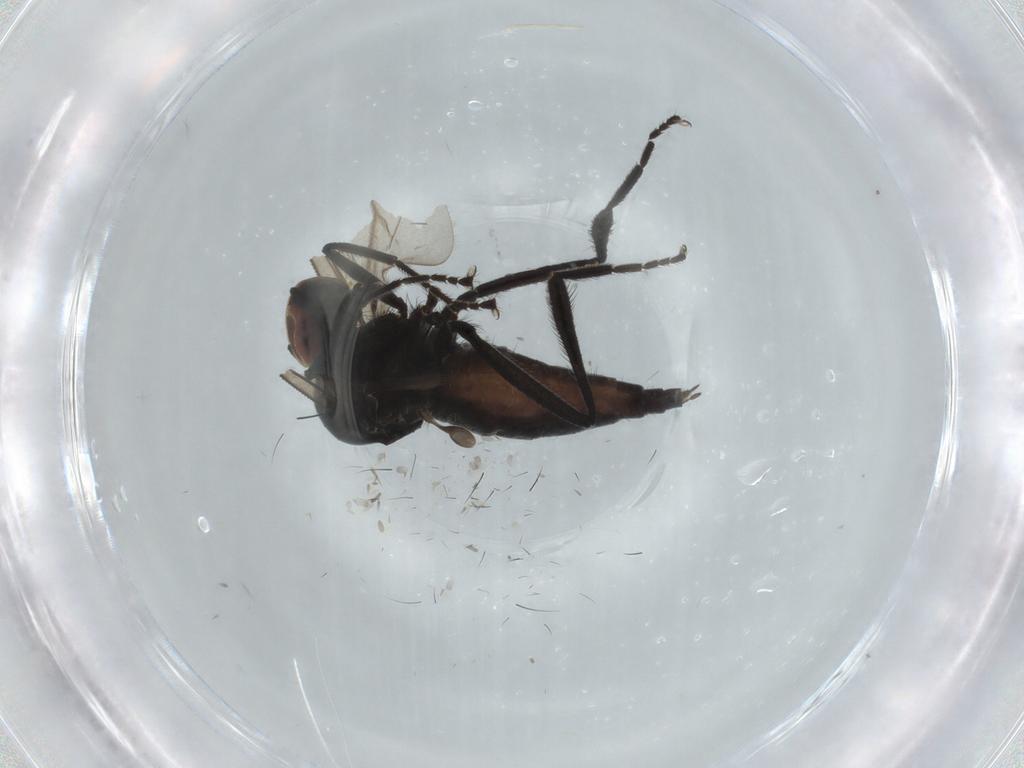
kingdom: Animalia
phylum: Arthropoda
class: Insecta
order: Diptera
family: Hybotidae
